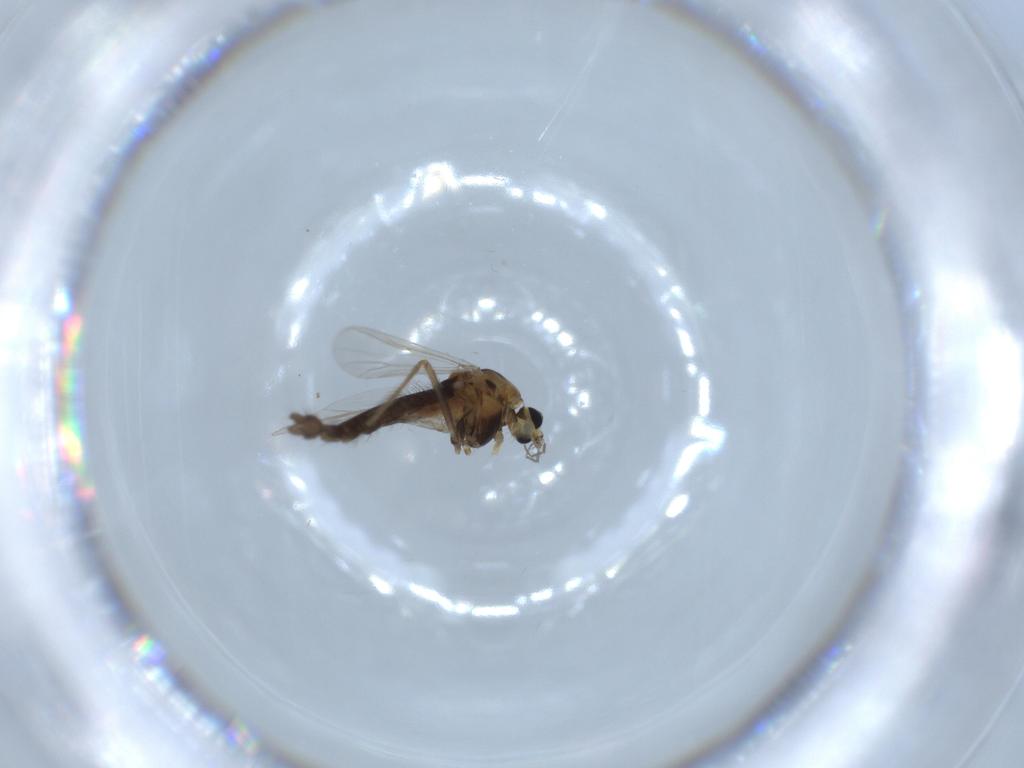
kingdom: Animalia
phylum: Arthropoda
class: Insecta
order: Diptera
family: Chironomidae
